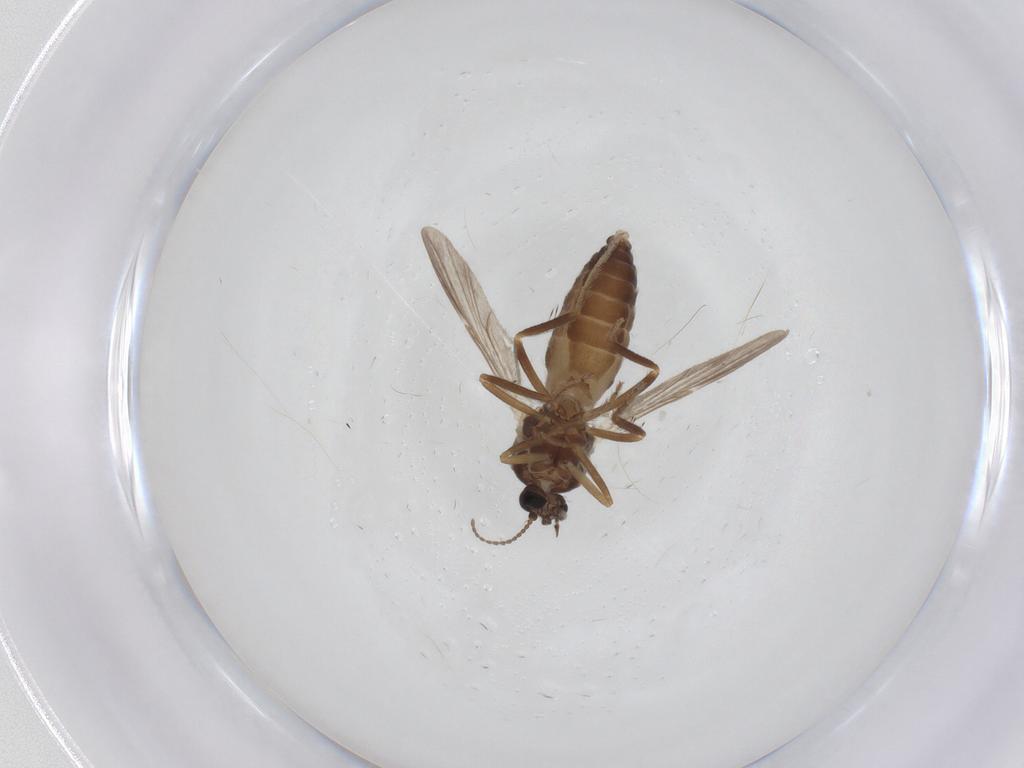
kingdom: Animalia
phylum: Arthropoda
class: Insecta
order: Diptera
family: Ceratopogonidae
